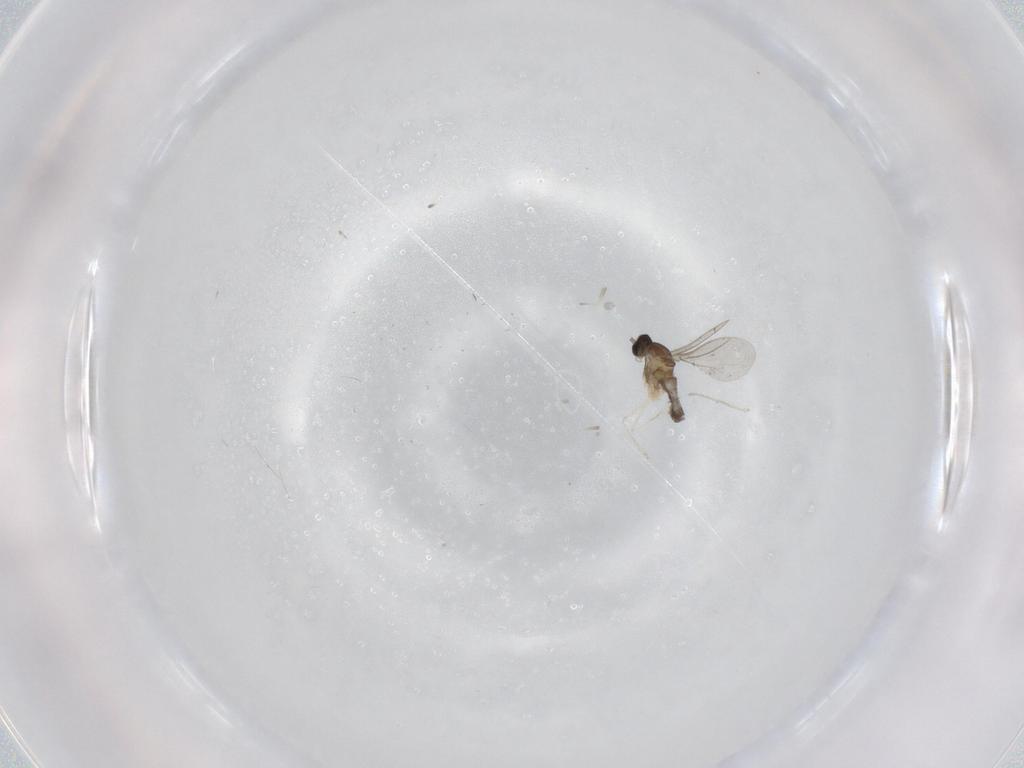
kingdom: Animalia
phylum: Arthropoda
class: Insecta
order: Diptera
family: Cecidomyiidae
